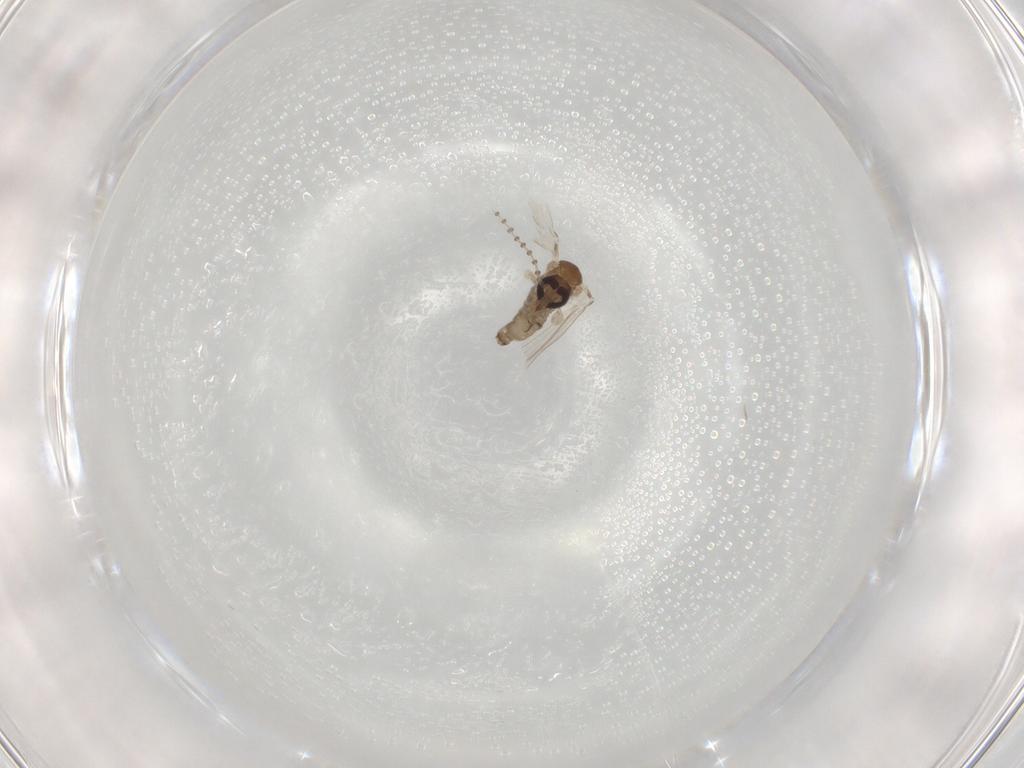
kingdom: Animalia
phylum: Arthropoda
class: Insecta
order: Diptera
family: Psychodidae
